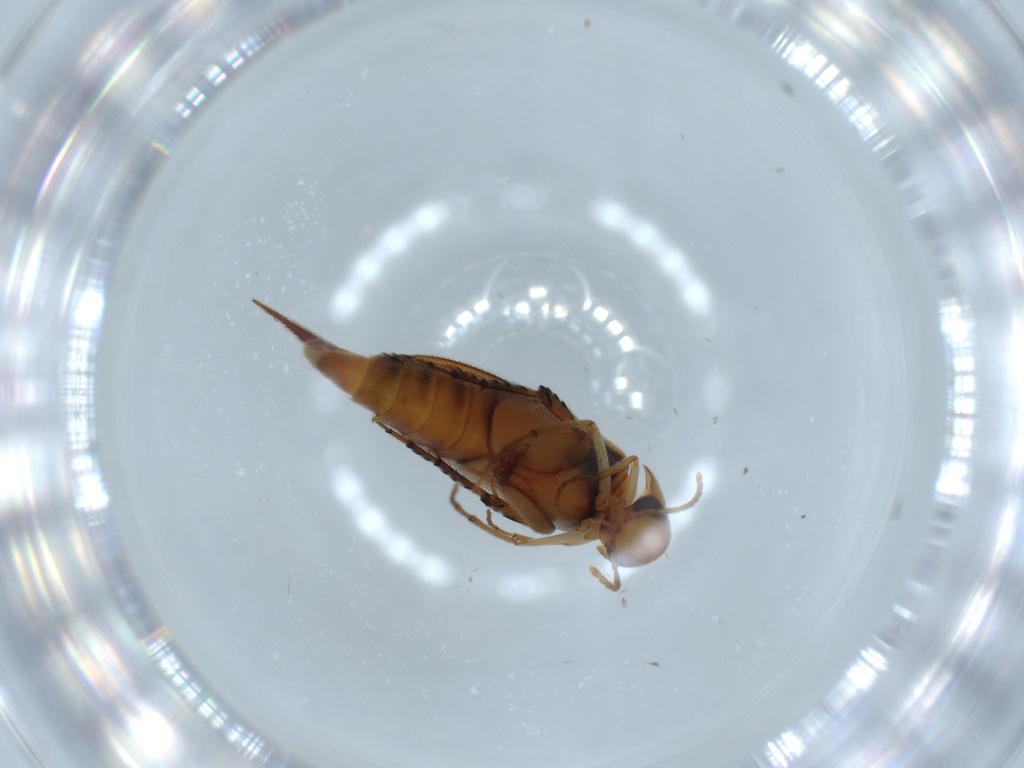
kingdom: Animalia
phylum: Arthropoda
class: Insecta
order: Coleoptera
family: Mordellidae
